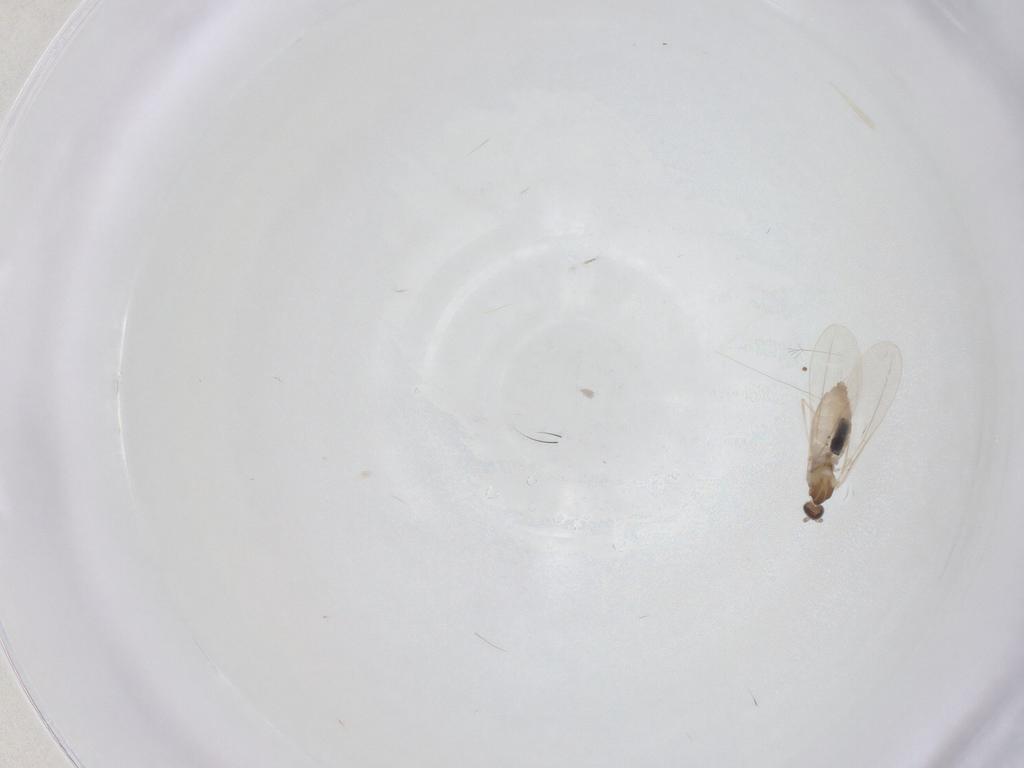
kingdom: Animalia
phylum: Arthropoda
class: Insecta
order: Diptera
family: Cecidomyiidae
